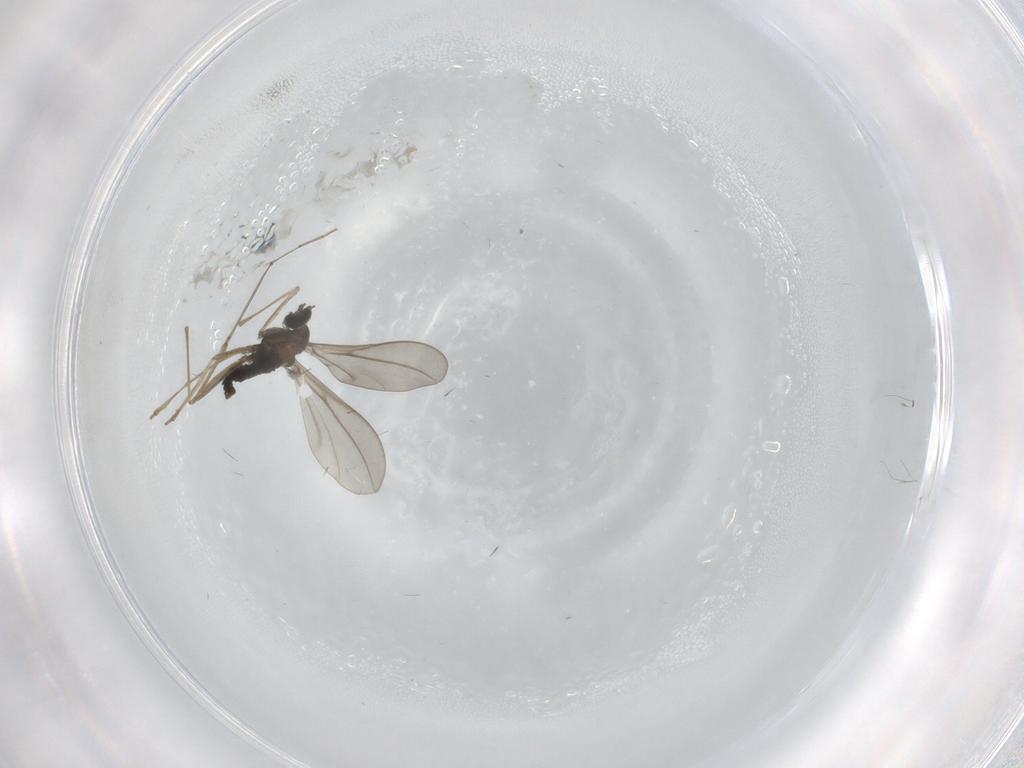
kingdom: Animalia
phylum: Arthropoda
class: Insecta
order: Diptera
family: Cecidomyiidae
